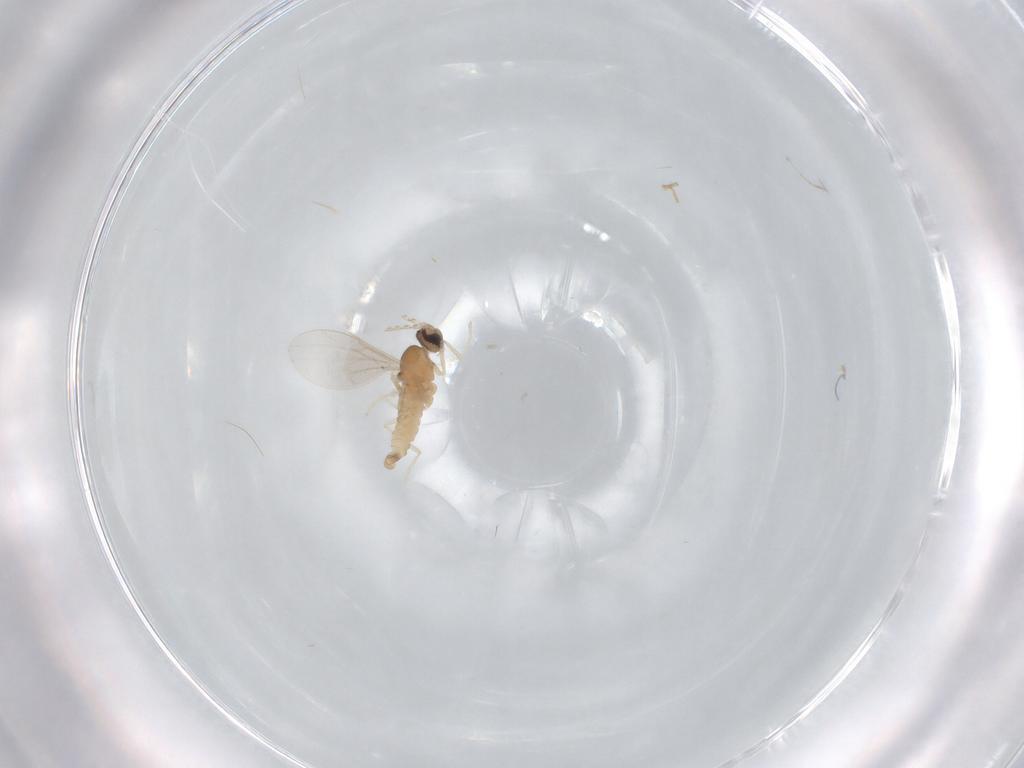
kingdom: Animalia
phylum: Arthropoda
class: Insecta
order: Diptera
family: Cecidomyiidae
